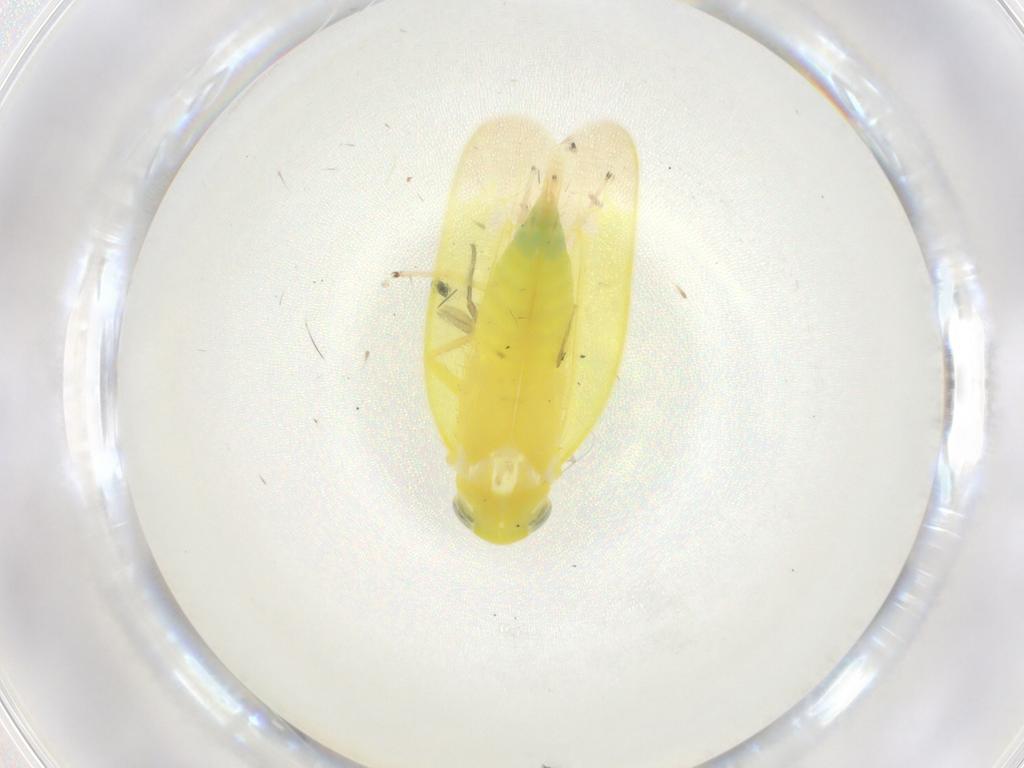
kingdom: Animalia
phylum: Arthropoda
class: Insecta
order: Hemiptera
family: Cicadellidae
